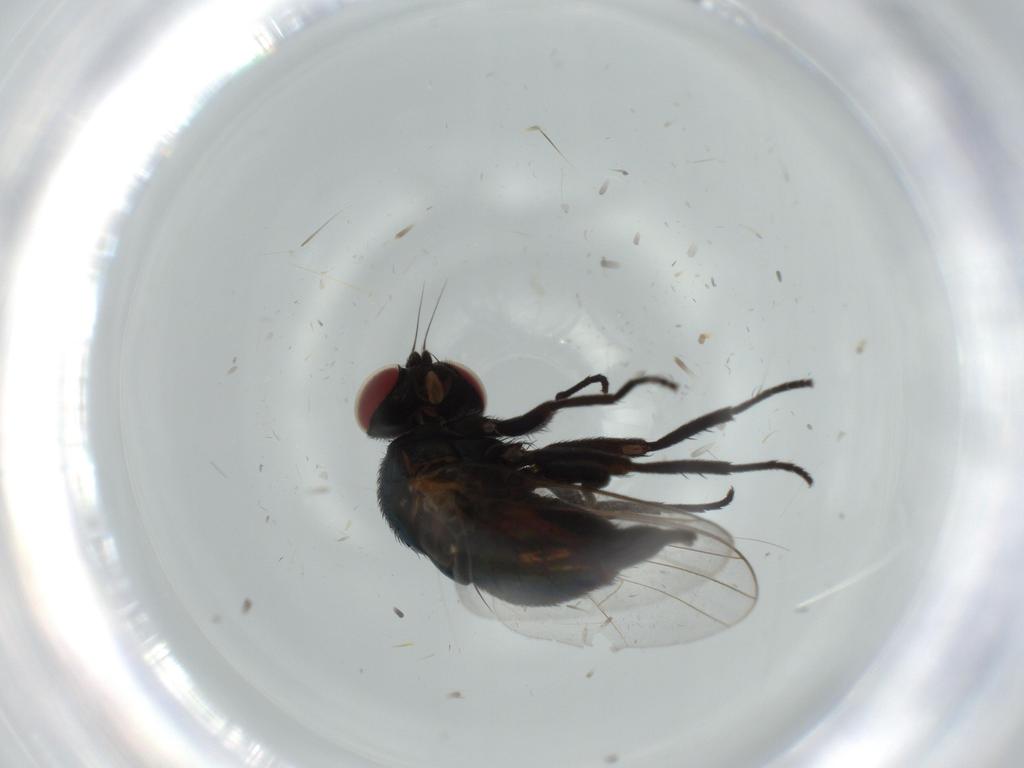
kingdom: Animalia
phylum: Arthropoda
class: Insecta
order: Diptera
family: Agromyzidae
